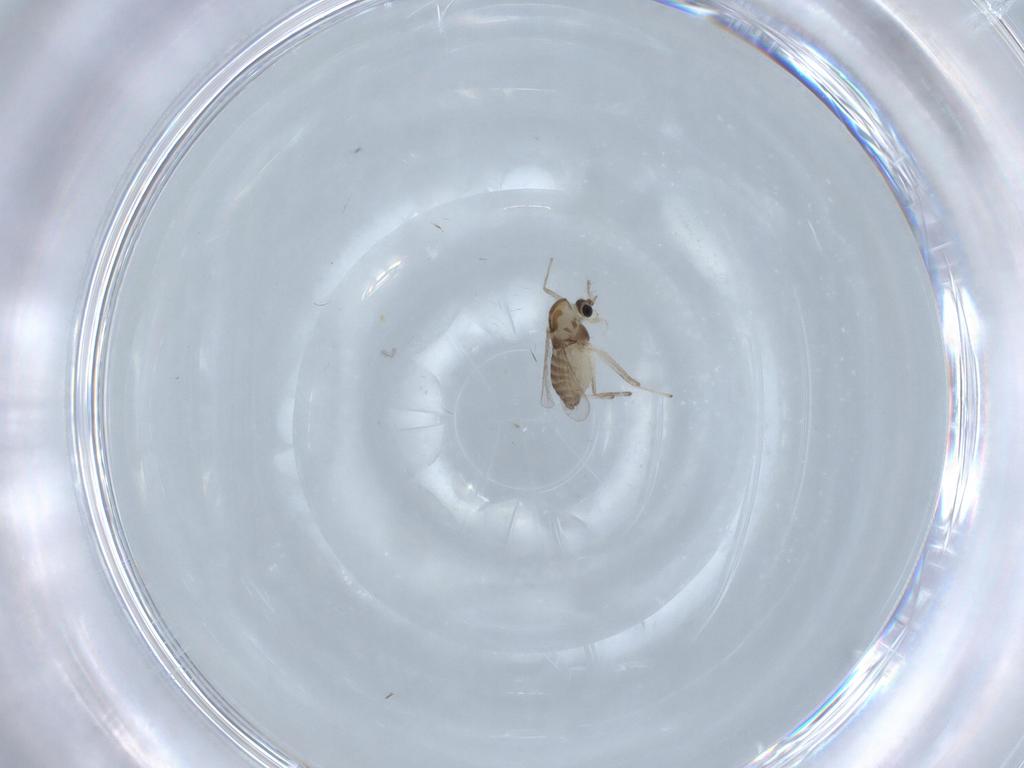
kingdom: Animalia
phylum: Arthropoda
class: Insecta
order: Diptera
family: Chironomidae
